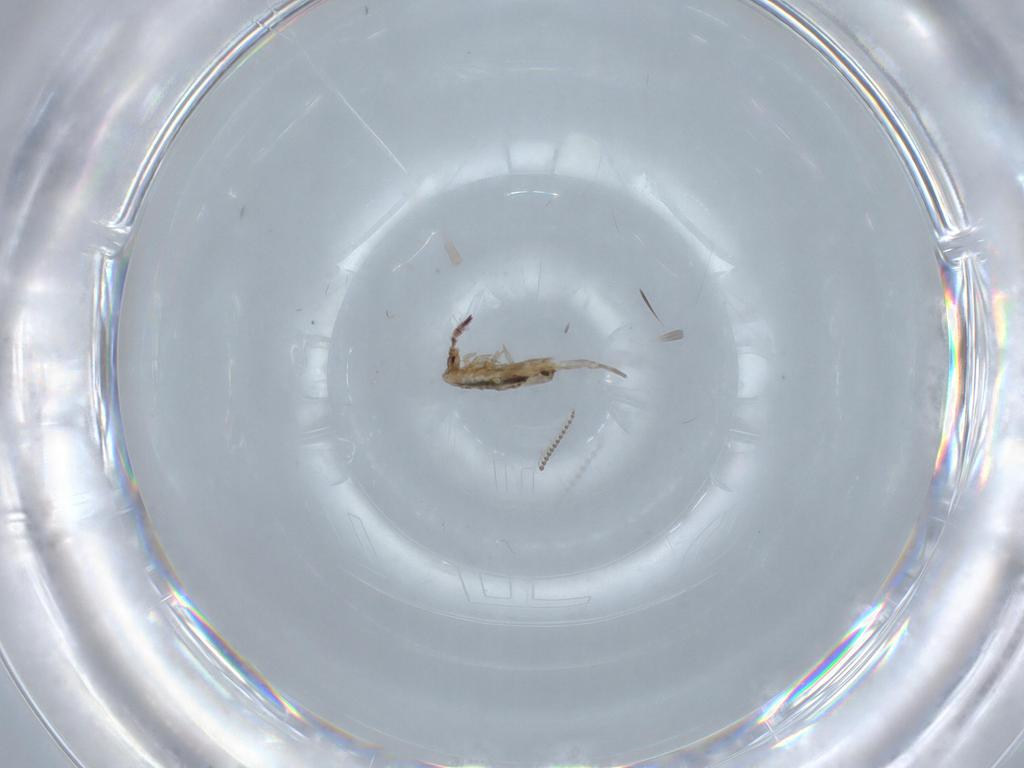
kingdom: Animalia
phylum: Arthropoda
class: Collembola
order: Entomobryomorpha
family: Entomobryidae
